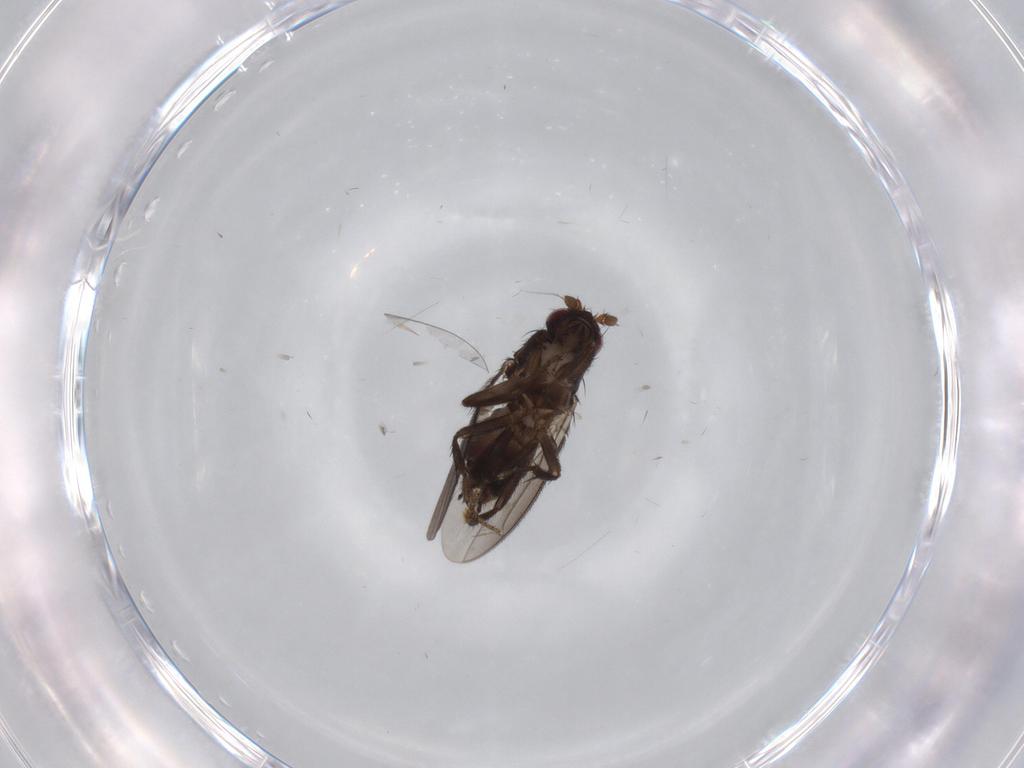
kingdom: Animalia
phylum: Arthropoda
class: Insecta
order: Diptera
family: Sphaeroceridae
